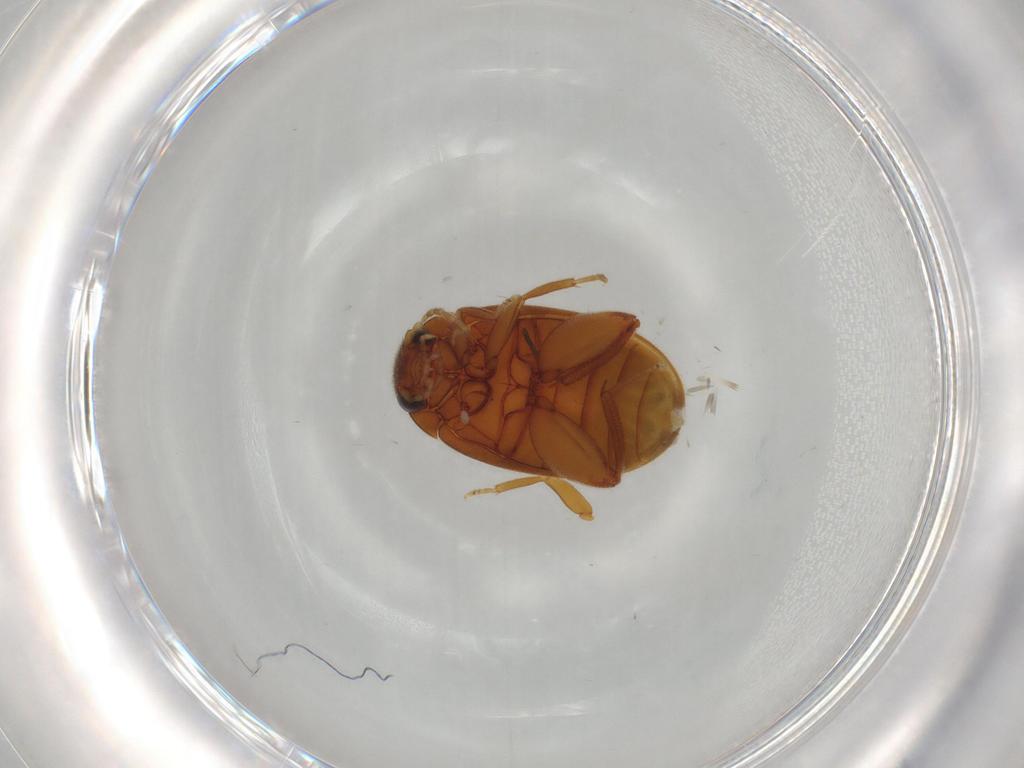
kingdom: Animalia
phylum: Arthropoda
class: Insecta
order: Coleoptera
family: Scirtidae
